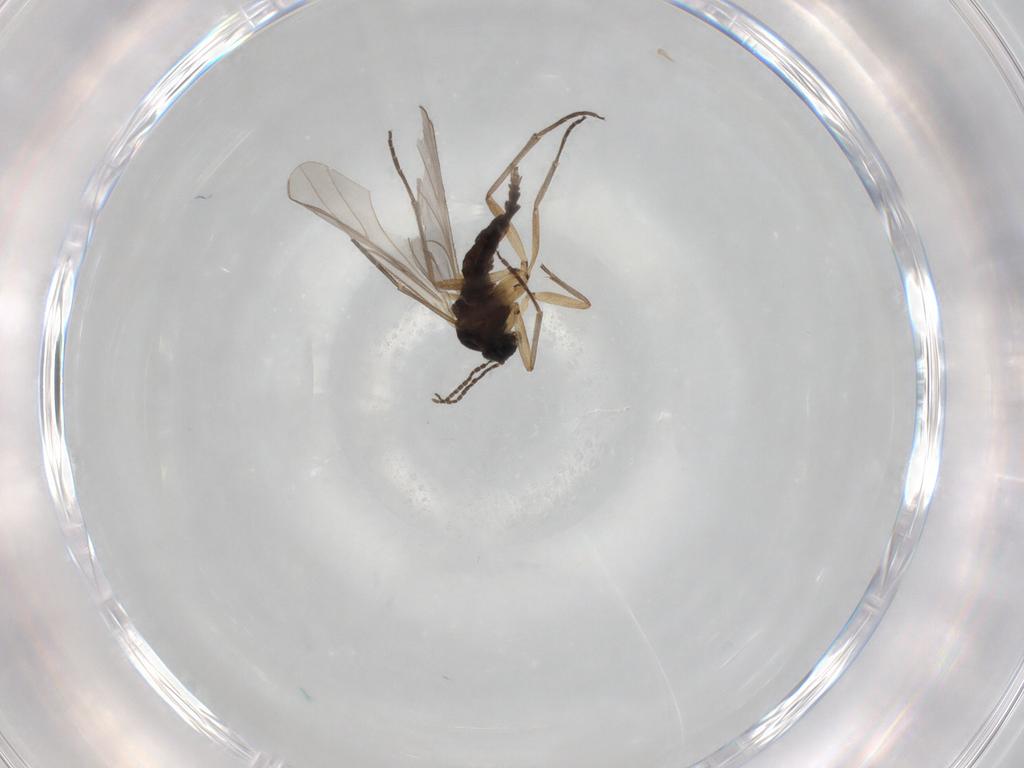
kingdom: Animalia
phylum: Arthropoda
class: Insecta
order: Diptera
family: Sciaridae
